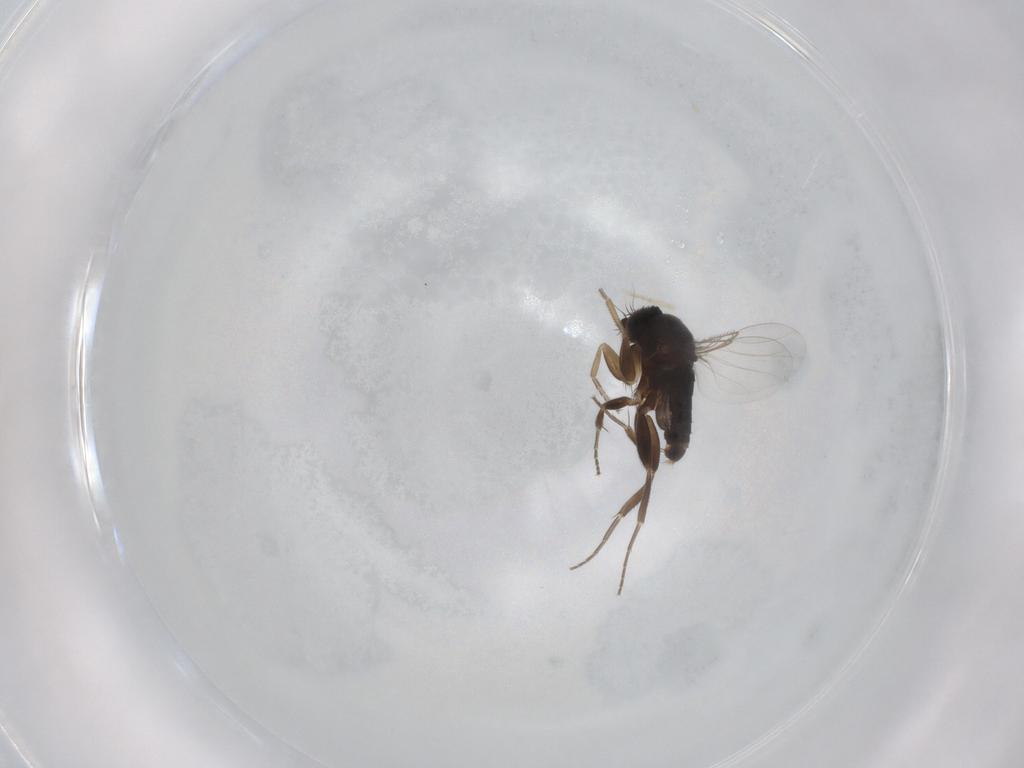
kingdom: Animalia
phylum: Arthropoda
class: Insecta
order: Diptera
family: Phoridae
